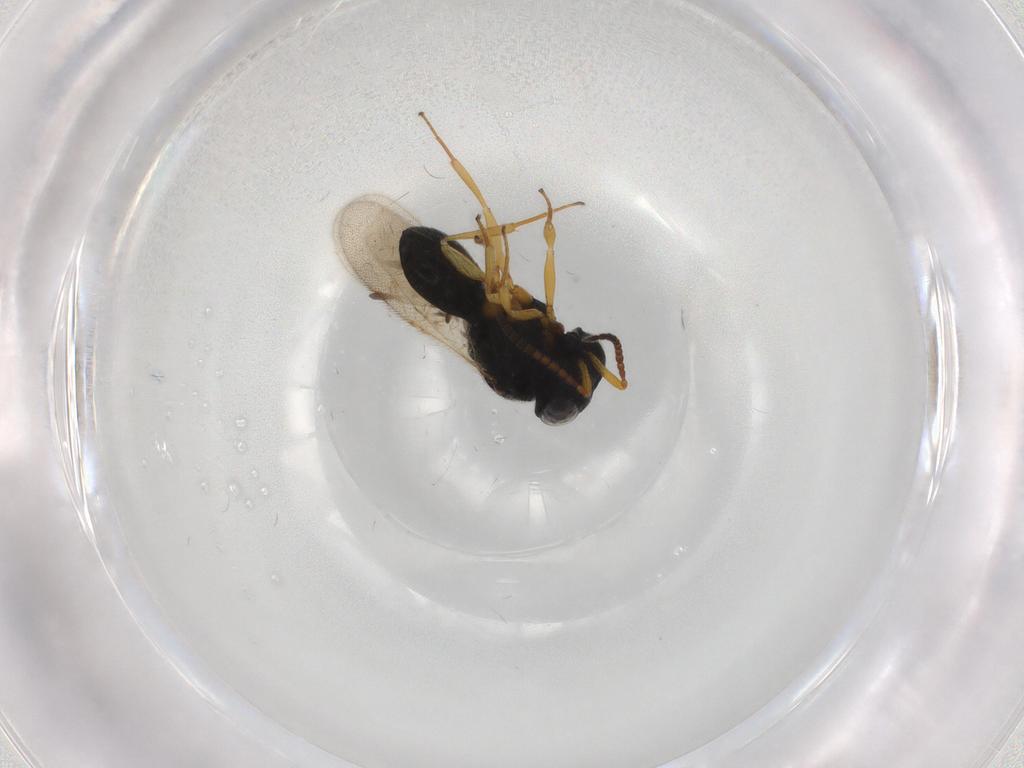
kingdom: Animalia
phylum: Arthropoda
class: Insecta
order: Hymenoptera
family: Scelionidae
